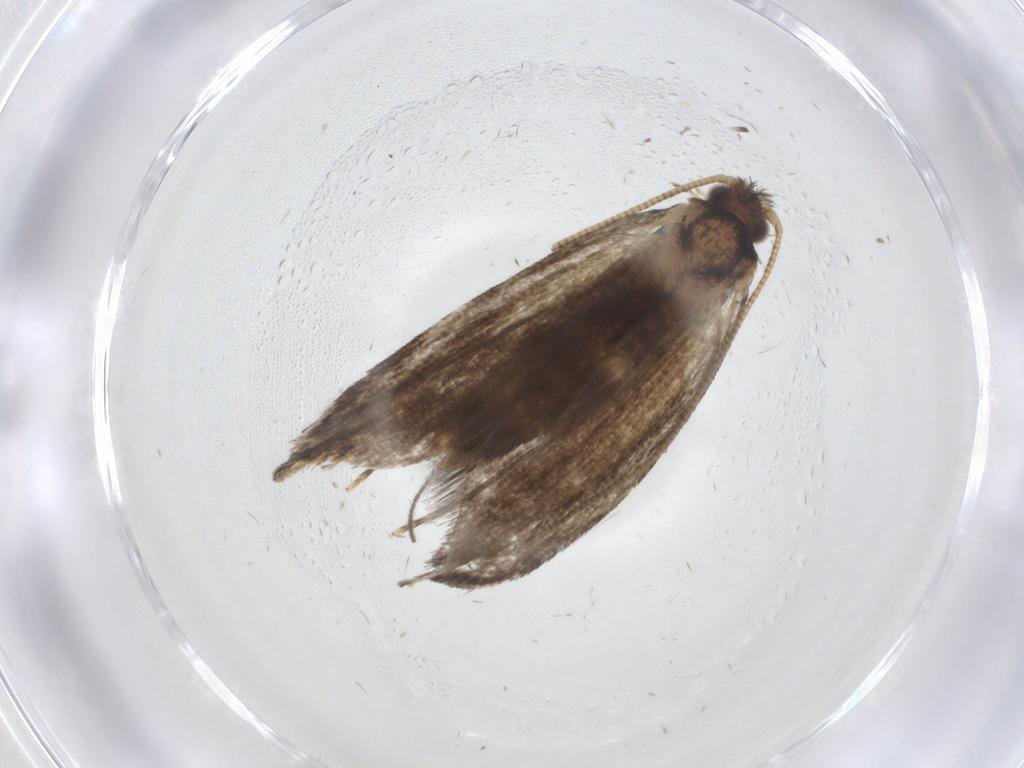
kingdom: Animalia
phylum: Arthropoda
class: Insecta
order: Lepidoptera
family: Tineidae
